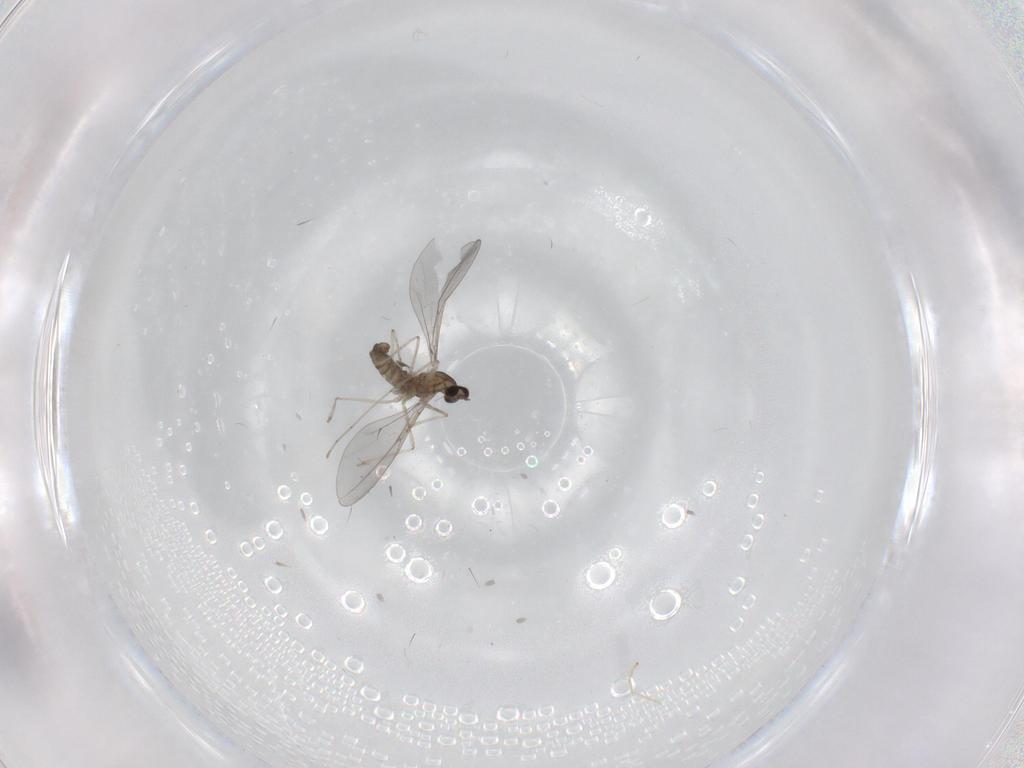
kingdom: Animalia
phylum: Arthropoda
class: Insecta
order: Diptera
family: Cecidomyiidae
